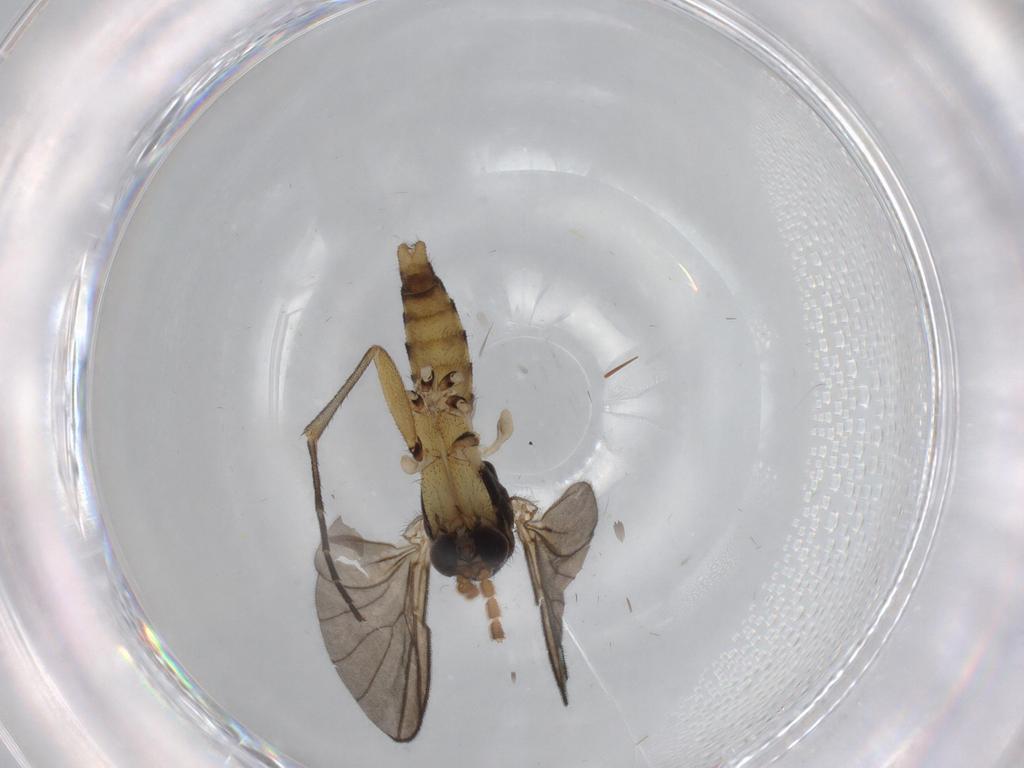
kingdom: Animalia
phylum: Arthropoda
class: Insecta
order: Diptera
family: Sciaridae
